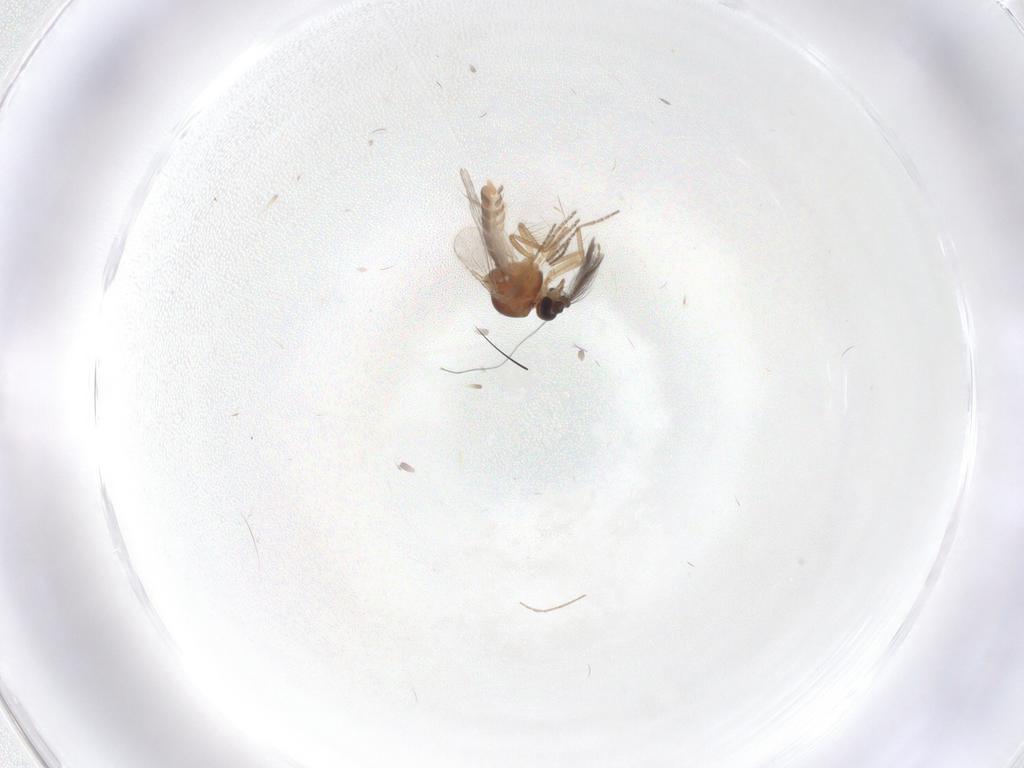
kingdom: Animalia
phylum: Arthropoda
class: Insecta
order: Diptera
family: Ceratopogonidae
